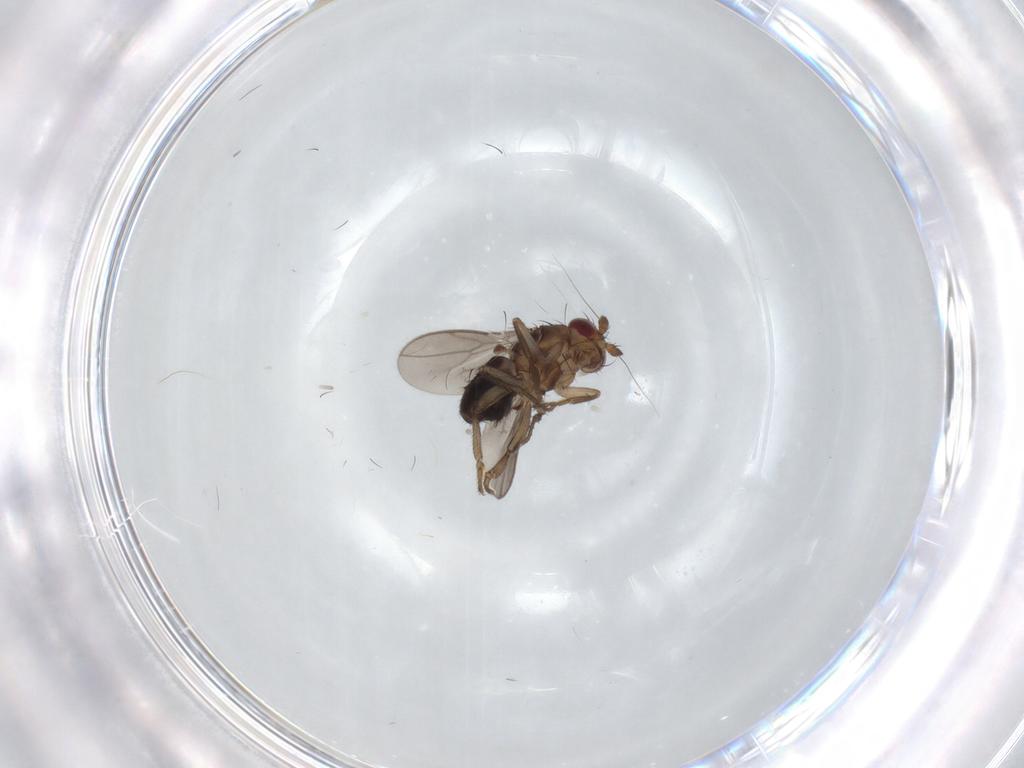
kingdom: Animalia
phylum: Arthropoda
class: Insecta
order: Diptera
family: Sphaeroceridae
